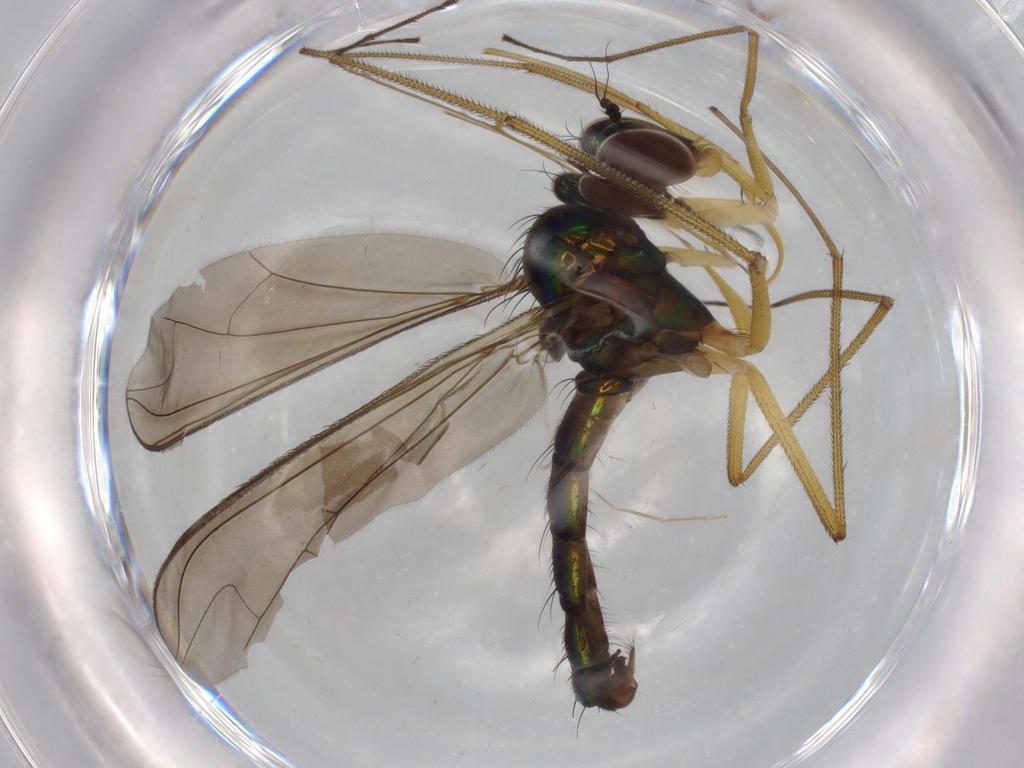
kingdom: Animalia
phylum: Arthropoda
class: Insecta
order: Diptera
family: Dolichopodidae
